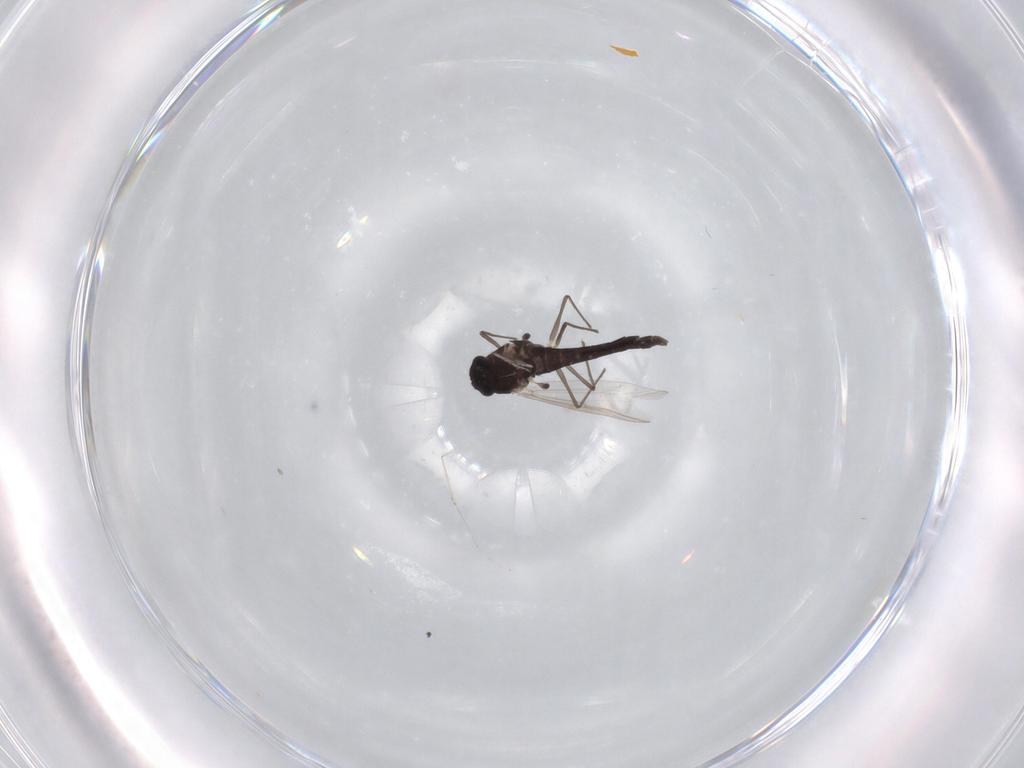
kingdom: Animalia
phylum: Arthropoda
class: Insecta
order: Diptera
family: Chironomidae
